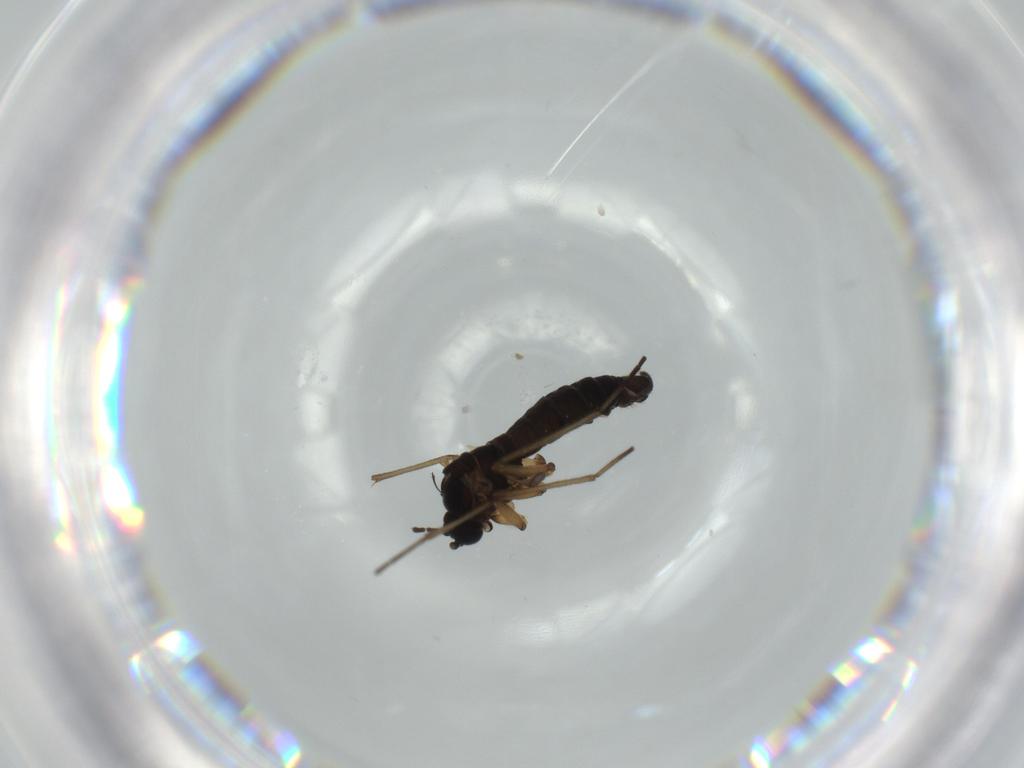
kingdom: Animalia
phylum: Arthropoda
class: Insecta
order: Diptera
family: Sciaridae
